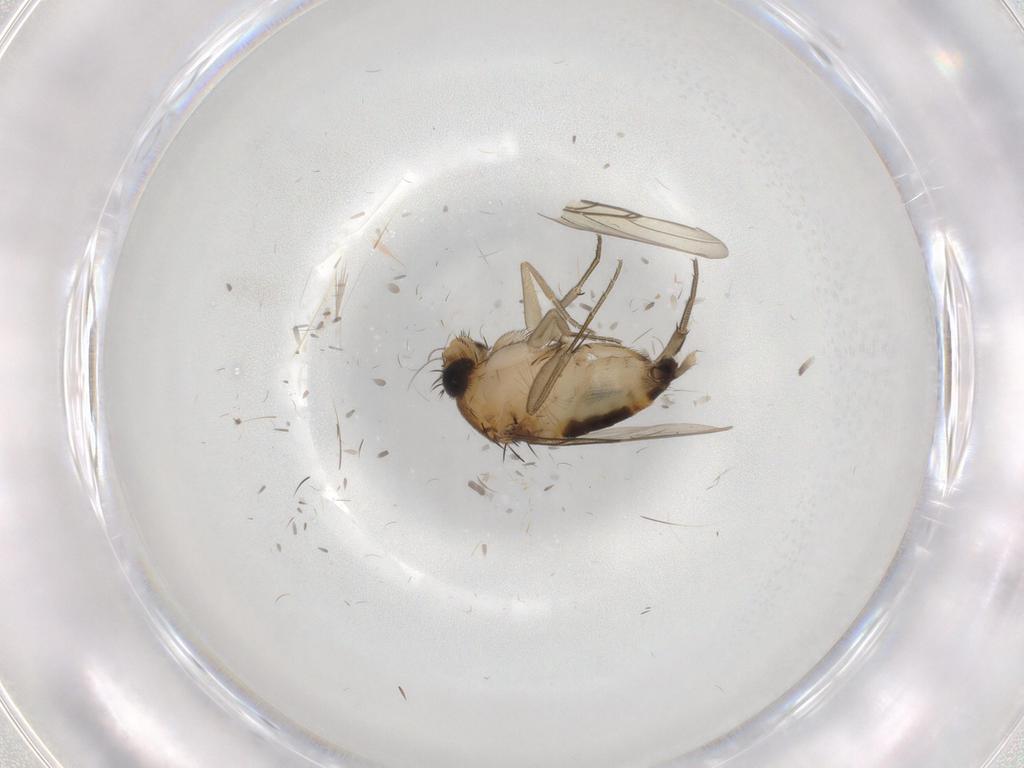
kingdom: Animalia
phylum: Arthropoda
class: Insecta
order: Diptera
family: Phoridae
